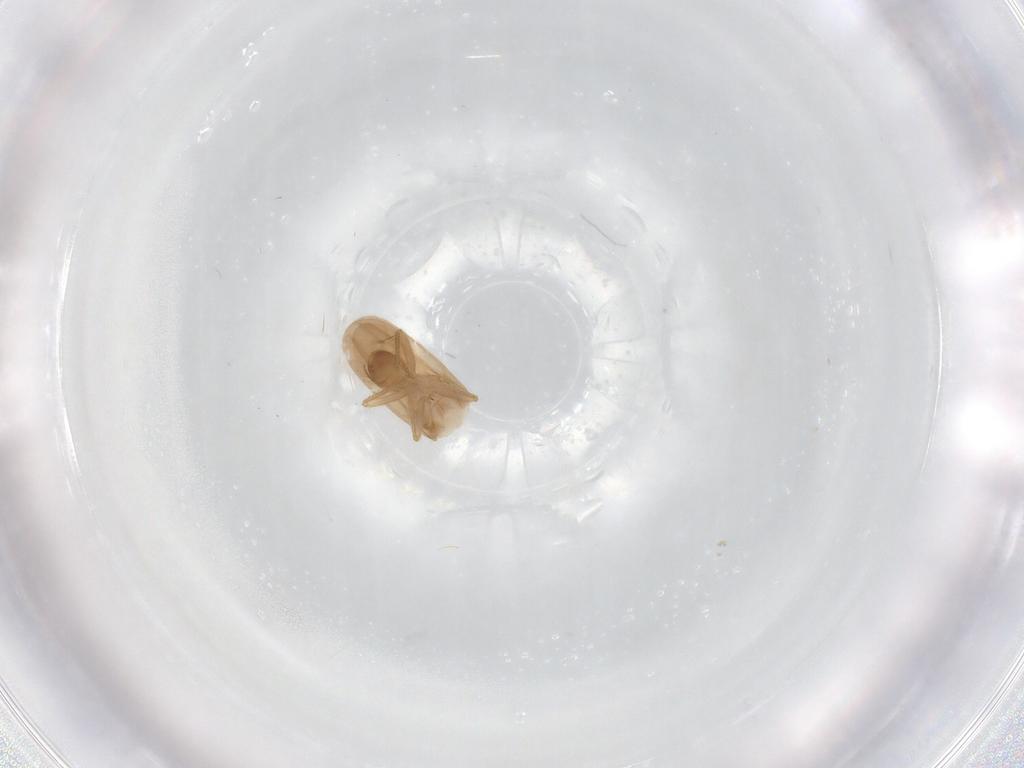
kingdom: Animalia
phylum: Arthropoda
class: Insecta
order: Hemiptera
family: Ceratocombidae
